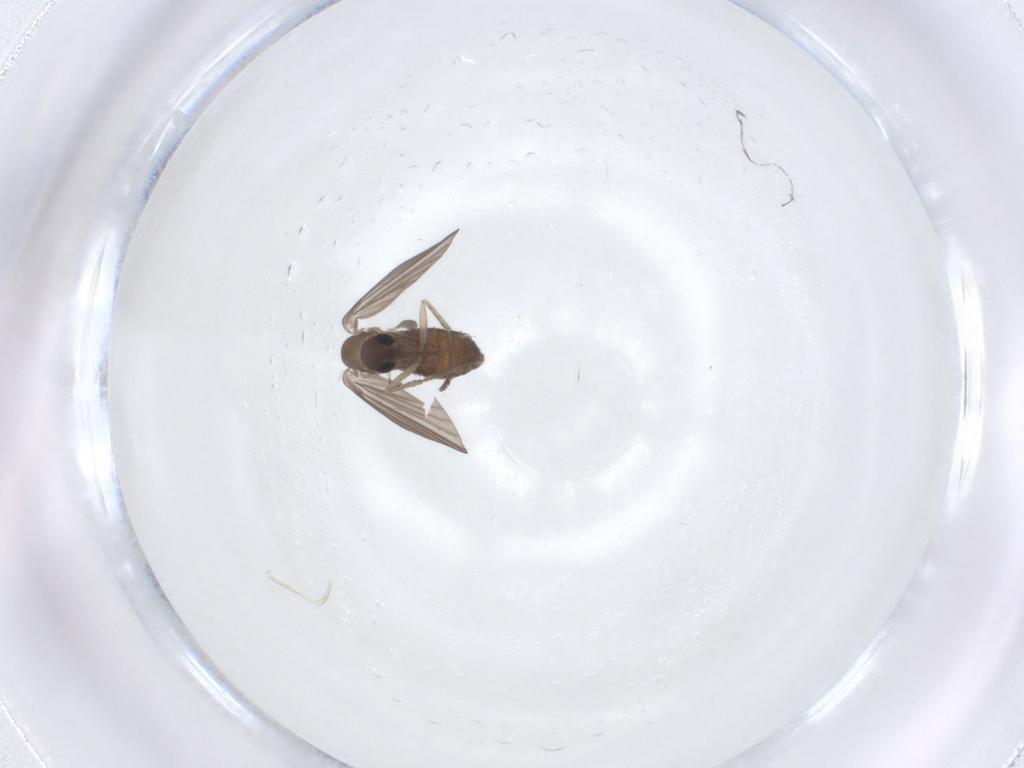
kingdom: Animalia
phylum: Arthropoda
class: Insecta
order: Diptera
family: Psychodidae
